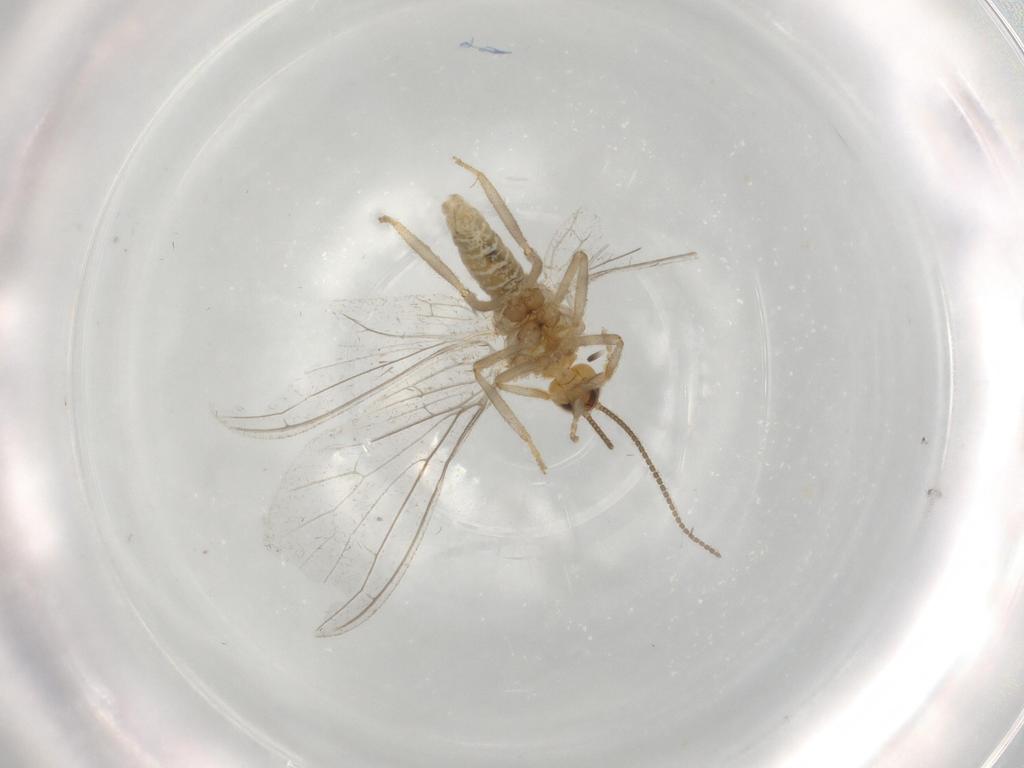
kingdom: Animalia
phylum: Arthropoda
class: Insecta
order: Neuroptera
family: Coniopterygidae
